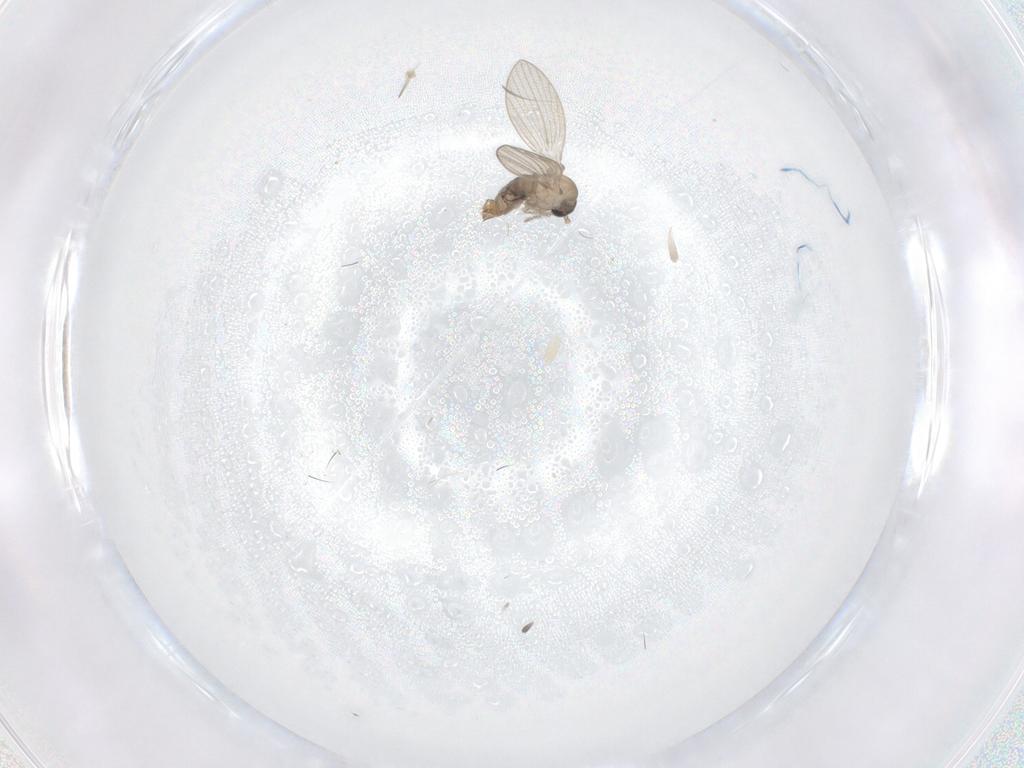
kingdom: Animalia
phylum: Arthropoda
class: Insecta
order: Diptera
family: Psychodidae
